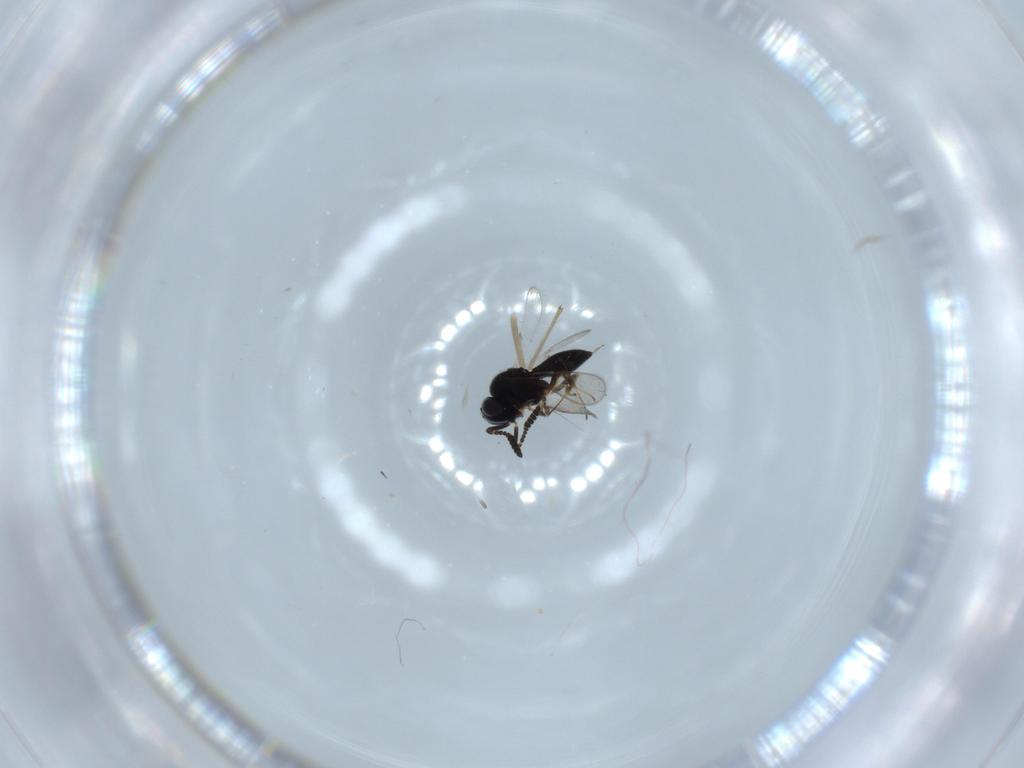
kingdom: Animalia
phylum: Arthropoda
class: Insecta
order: Hymenoptera
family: Scelionidae
